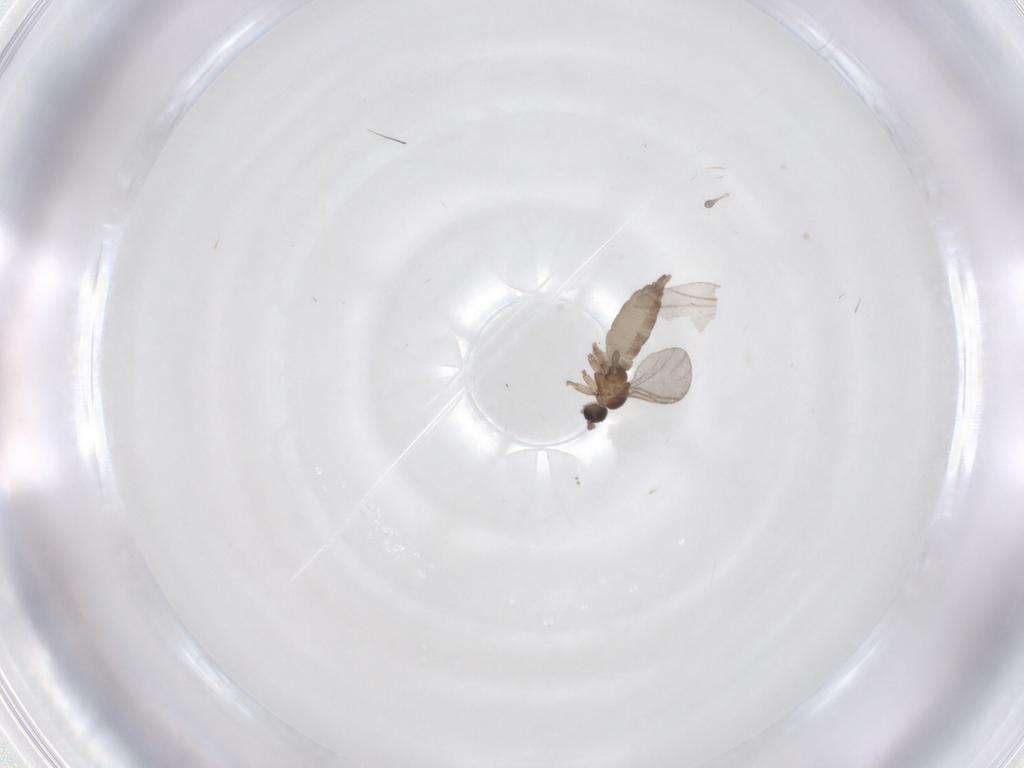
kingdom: Animalia
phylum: Arthropoda
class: Insecta
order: Diptera
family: Cecidomyiidae
